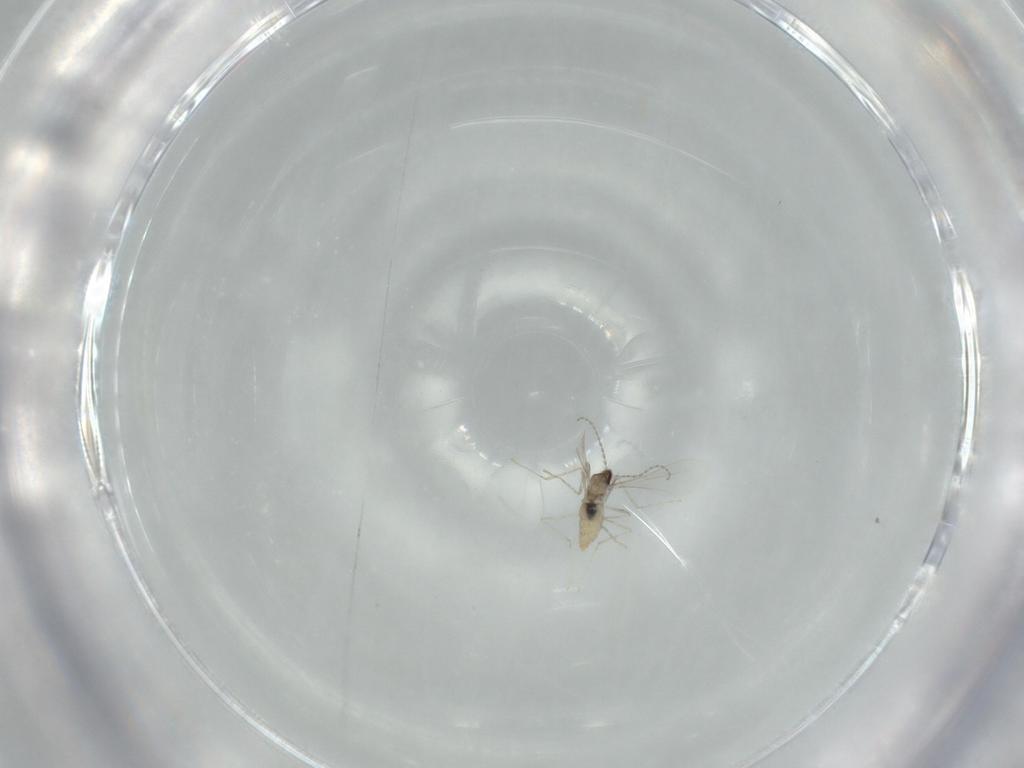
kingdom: Animalia
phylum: Arthropoda
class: Insecta
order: Diptera
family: Cecidomyiidae
